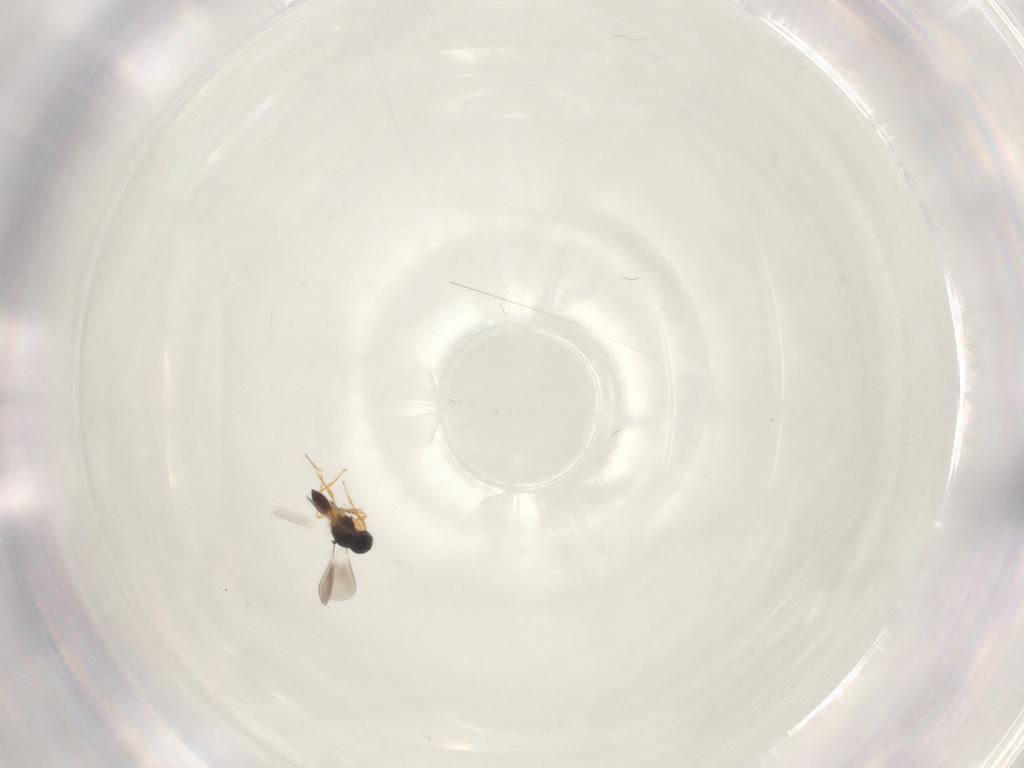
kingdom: Animalia
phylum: Arthropoda
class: Insecta
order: Hymenoptera
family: Platygastridae
